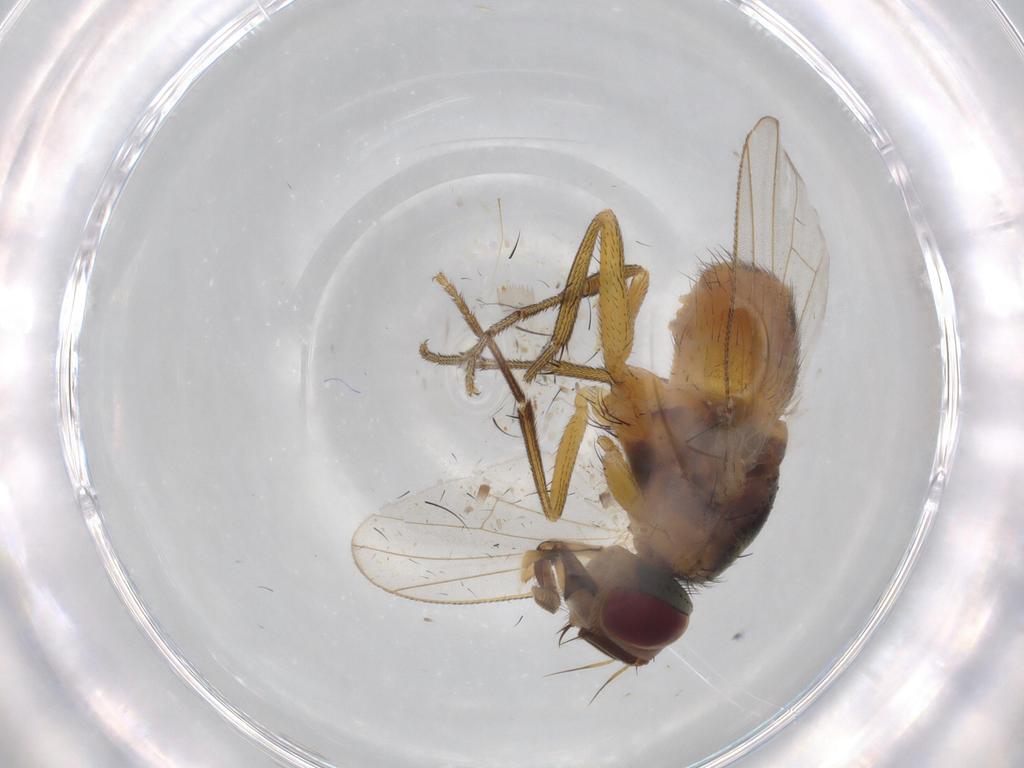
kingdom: Animalia
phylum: Arthropoda
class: Insecta
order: Diptera
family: Muscidae
